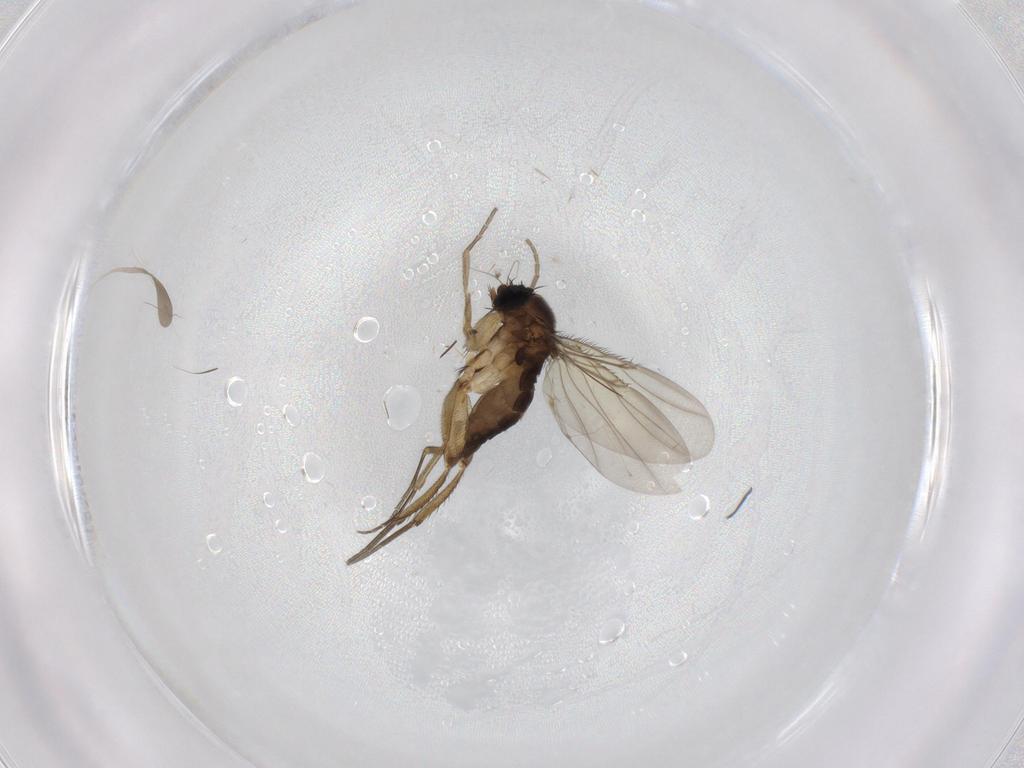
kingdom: Animalia
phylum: Arthropoda
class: Insecta
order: Diptera
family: Phoridae
